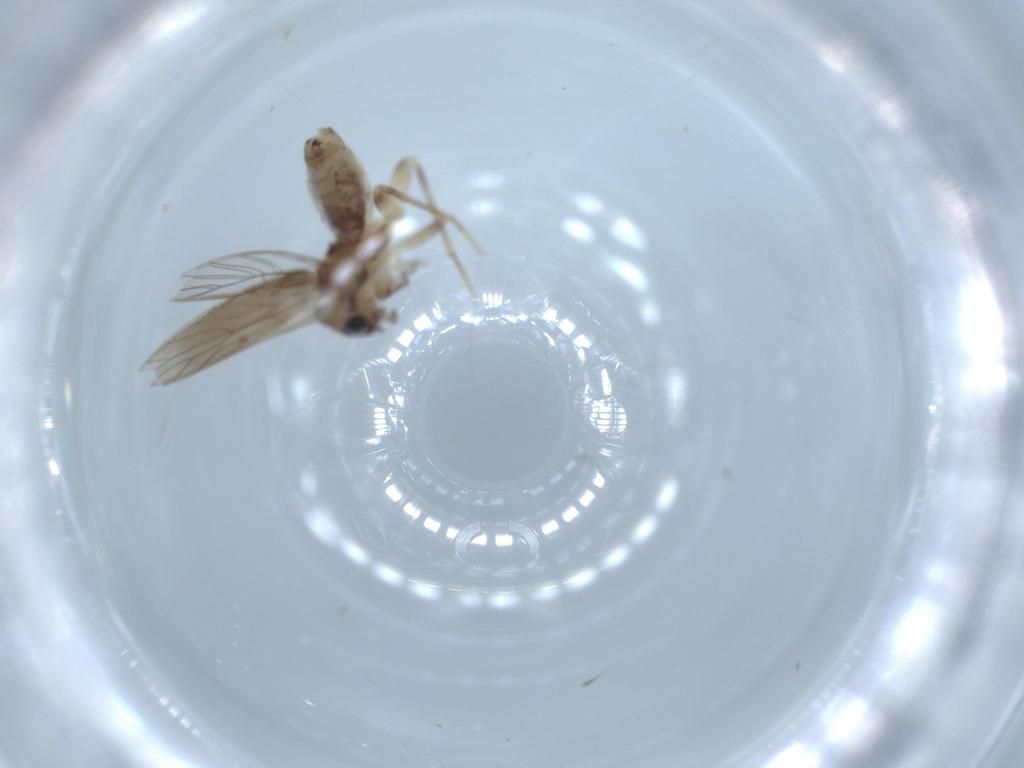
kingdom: Animalia
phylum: Arthropoda
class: Insecta
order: Psocodea
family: Lepidopsocidae
